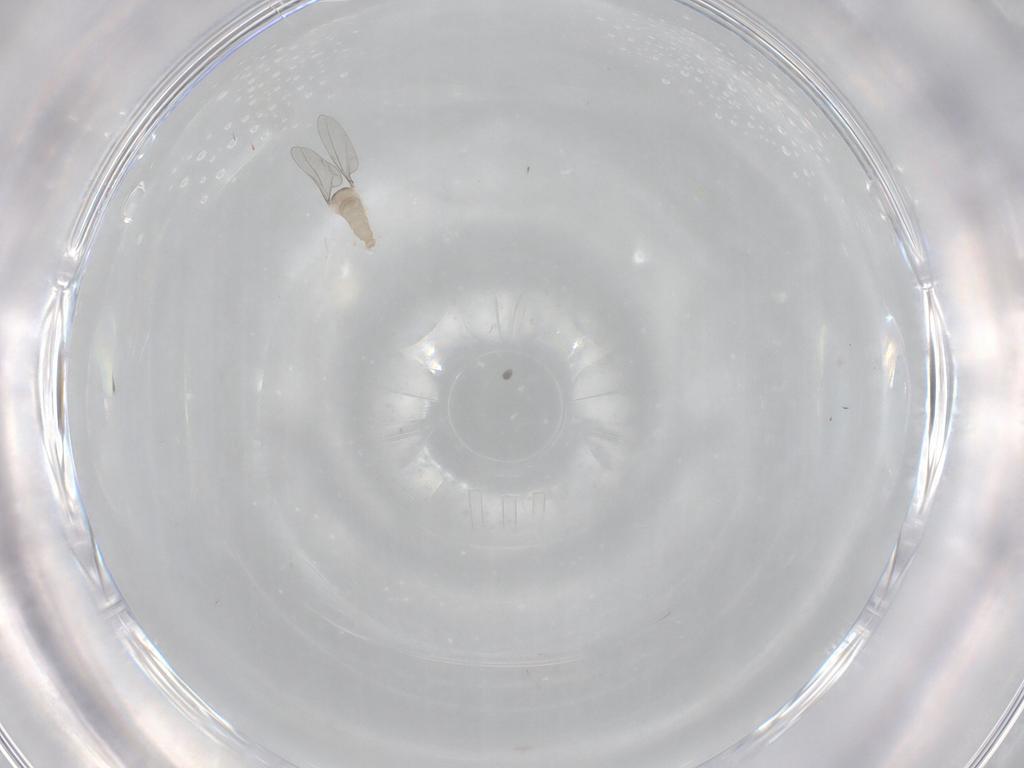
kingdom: Animalia
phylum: Arthropoda
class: Insecta
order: Diptera
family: Cecidomyiidae
